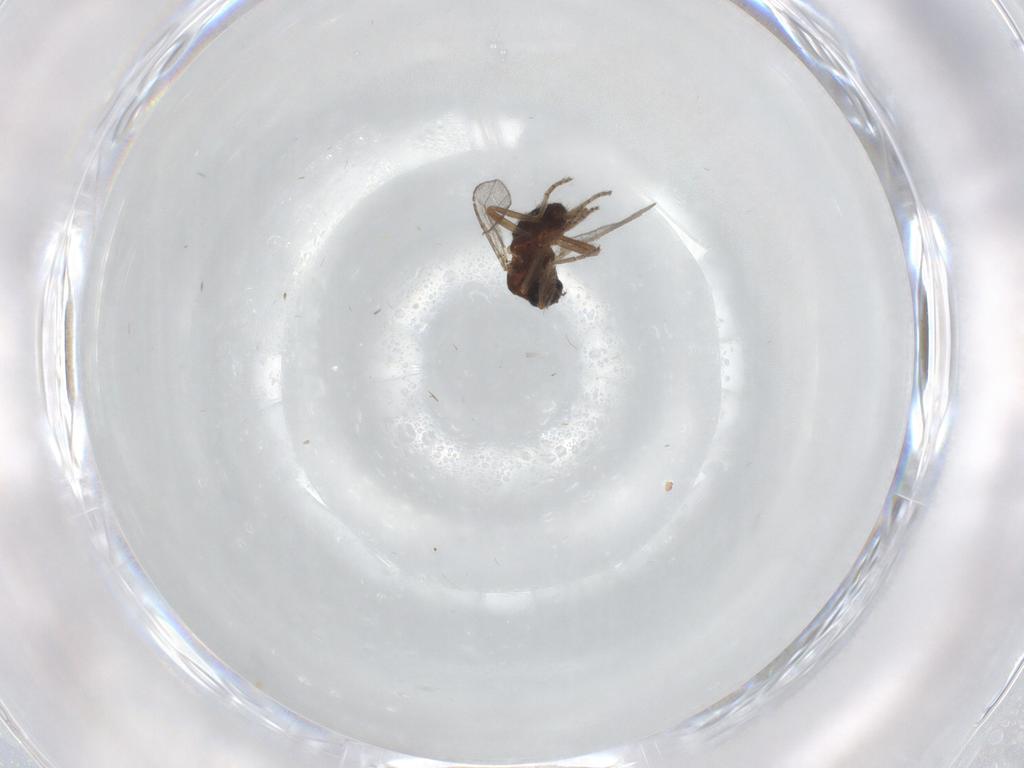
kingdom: Animalia
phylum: Arthropoda
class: Insecta
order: Diptera
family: Ceratopogonidae
